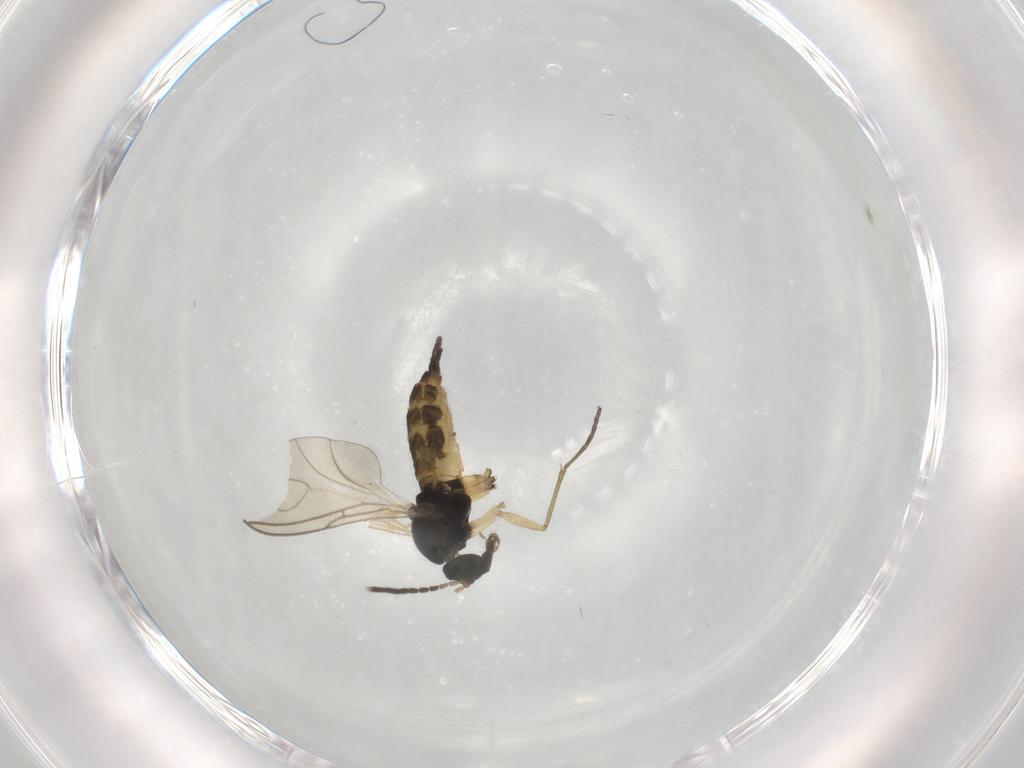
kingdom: Animalia
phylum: Arthropoda
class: Insecta
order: Diptera
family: Sciaridae
